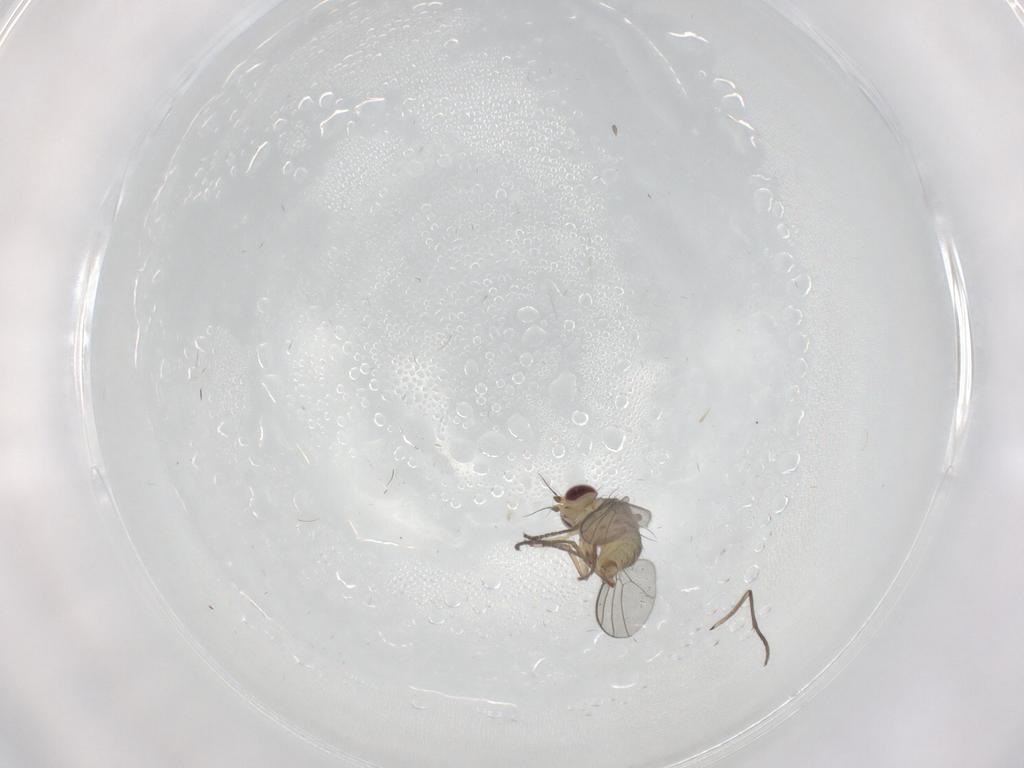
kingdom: Animalia
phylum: Arthropoda
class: Insecta
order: Diptera
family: Agromyzidae
